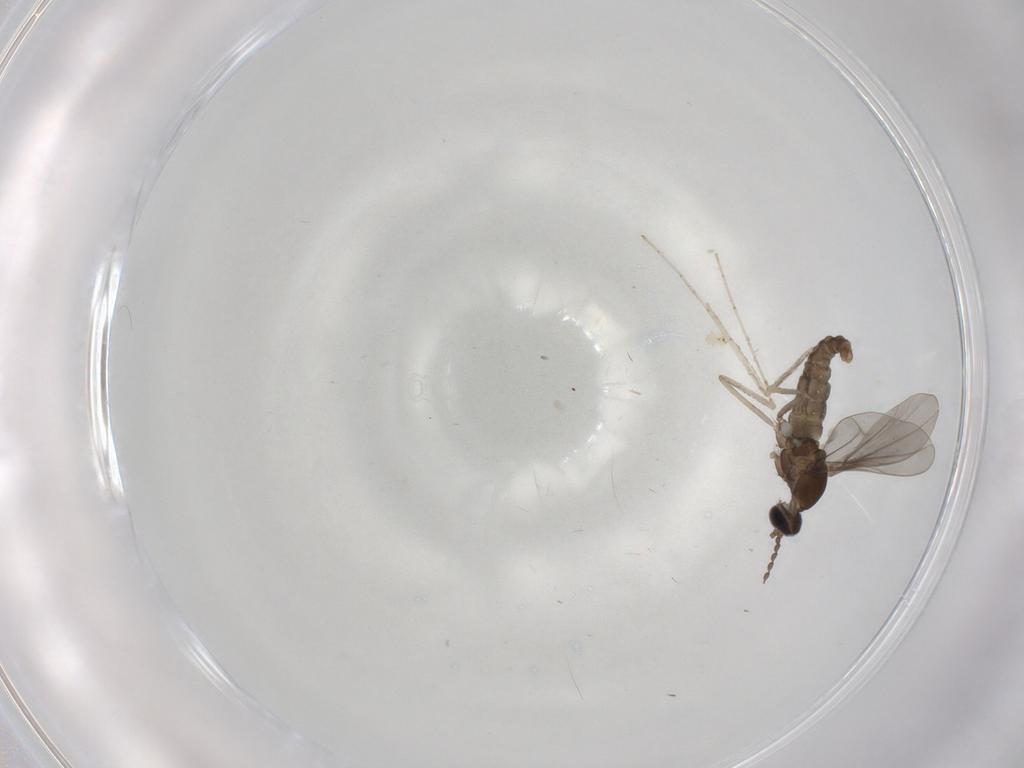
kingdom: Animalia
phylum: Arthropoda
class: Insecta
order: Diptera
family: Cecidomyiidae
